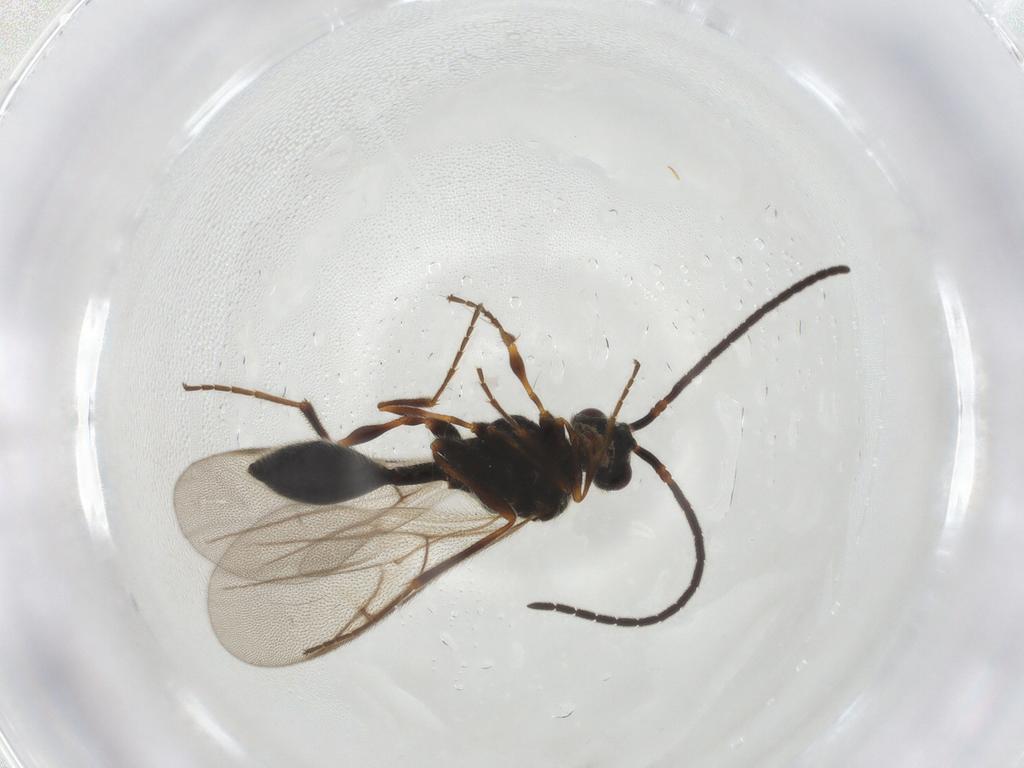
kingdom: Animalia
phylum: Arthropoda
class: Insecta
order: Hymenoptera
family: Diapriidae
